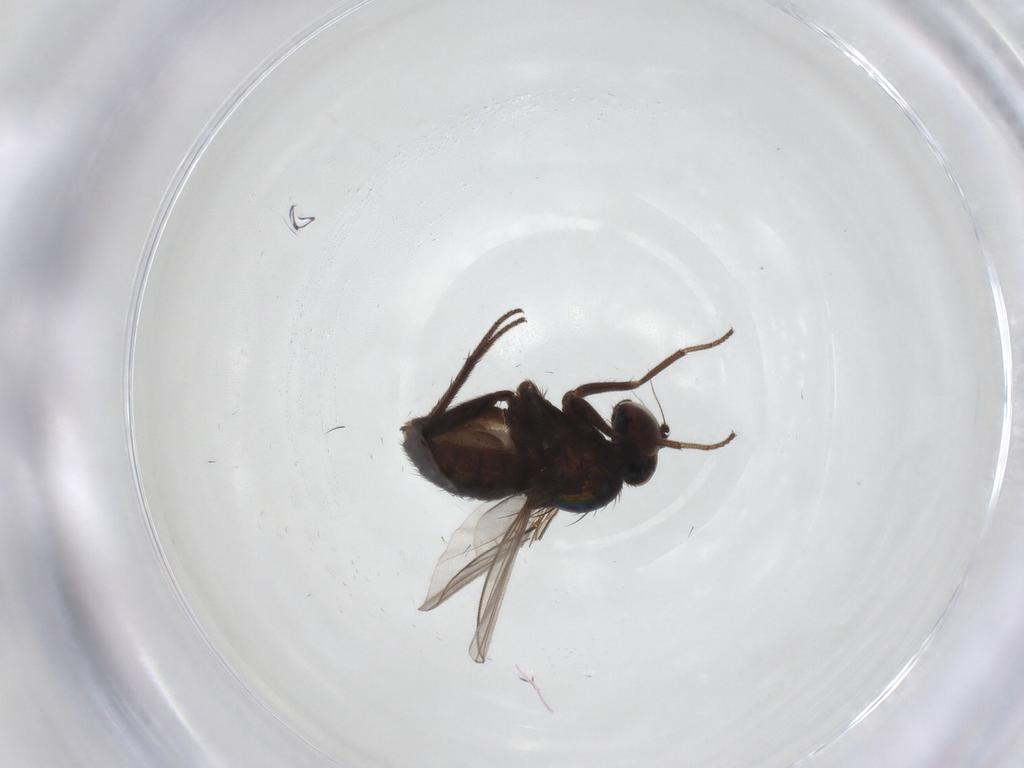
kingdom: Animalia
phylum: Arthropoda
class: Insecta
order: Diptera
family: Dolichopodidae
